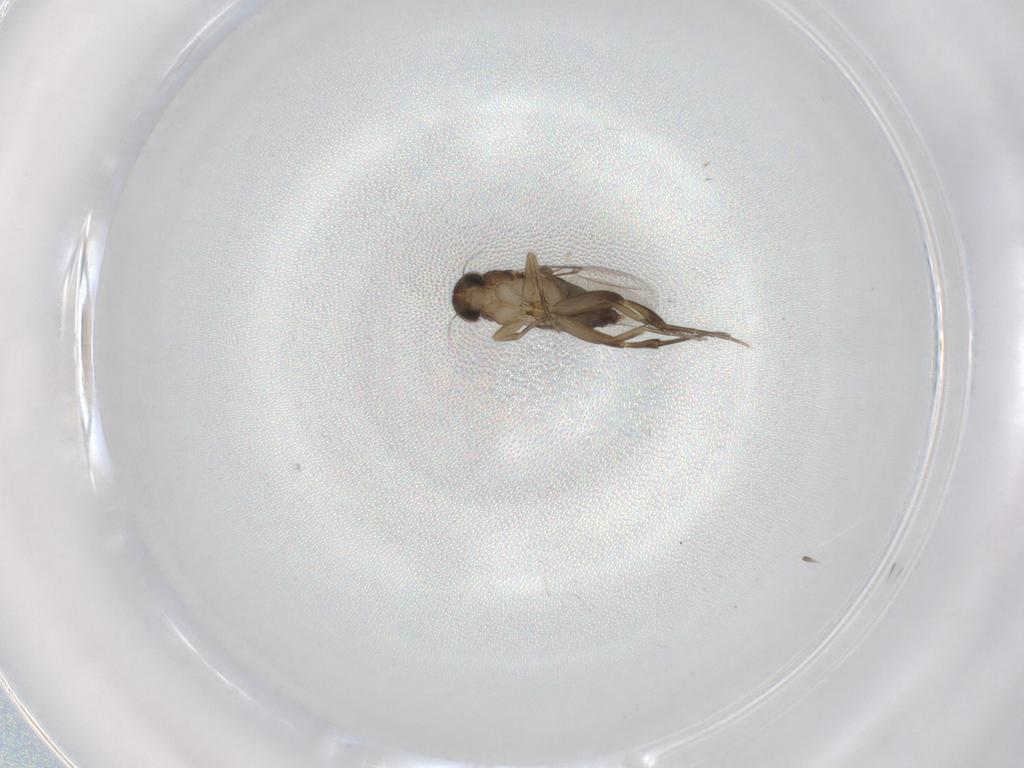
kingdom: Animalia
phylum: Arthropoda
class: Insecta
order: Diptera
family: Phoridae
